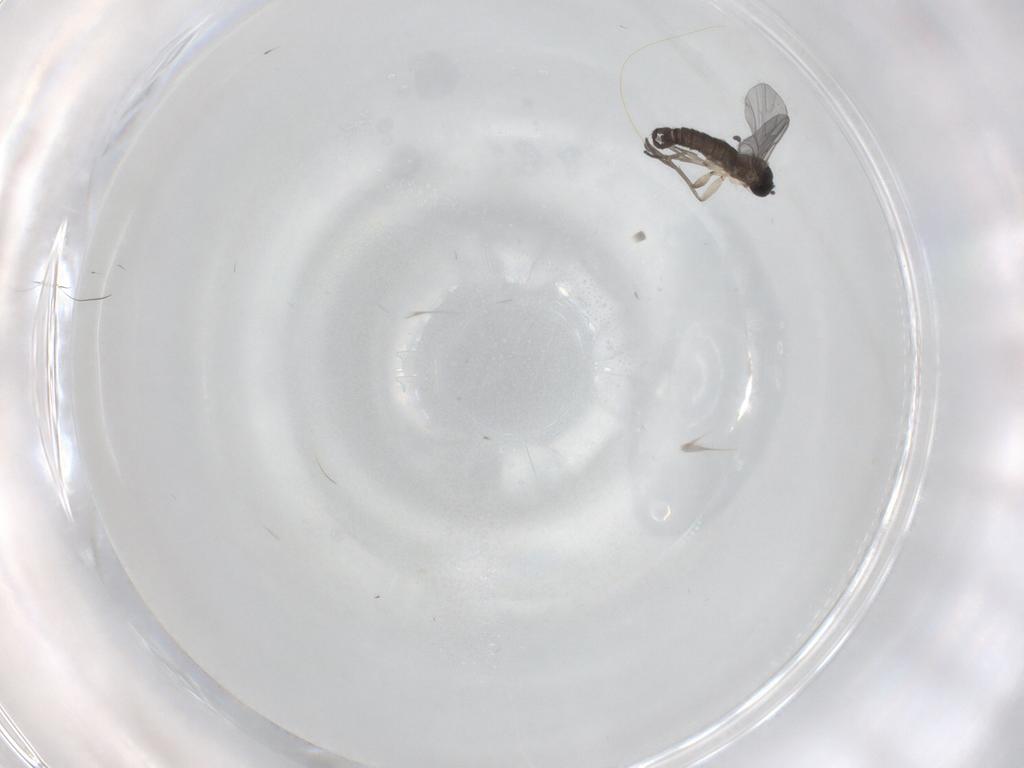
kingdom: Animalia
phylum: Arthropoda
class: Insecta
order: Diptera
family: Sciaridae
